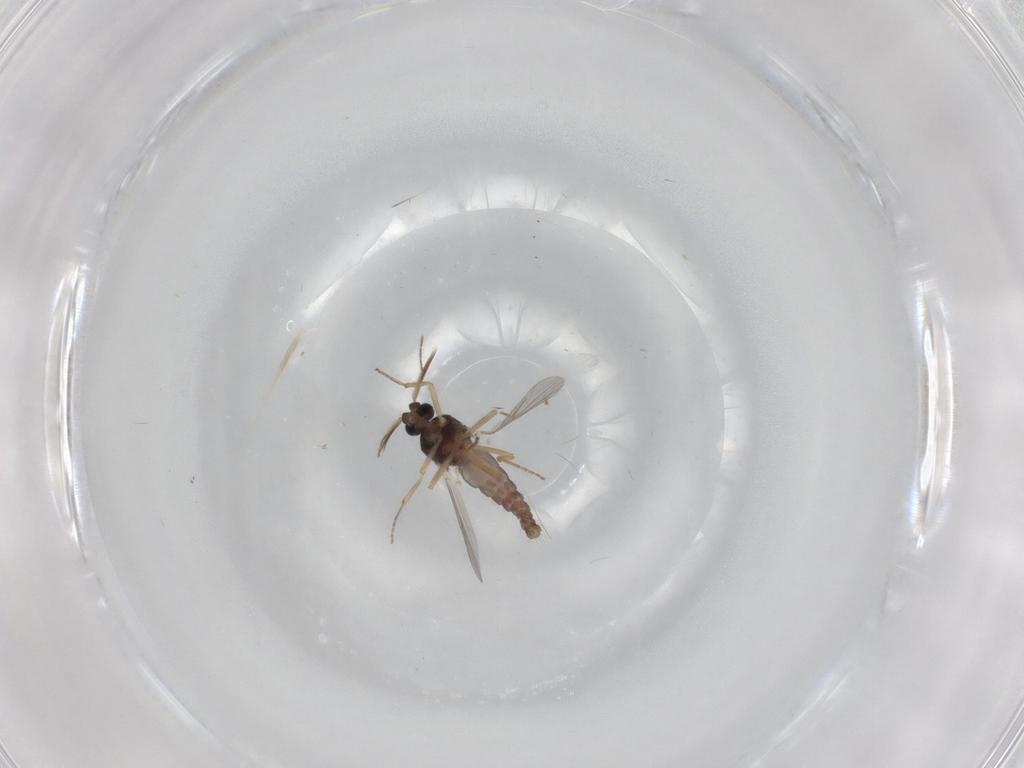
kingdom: Animalia
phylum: Arthropoda
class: Insecta
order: Diptera
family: Ceratopogonidae
